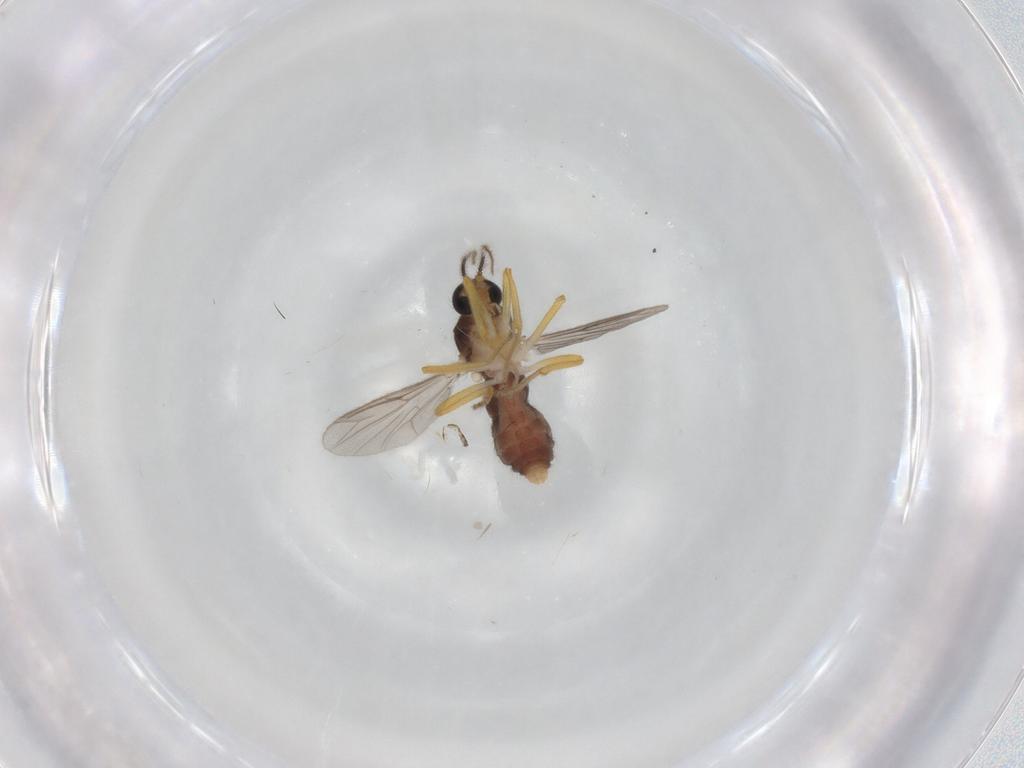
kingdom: Animalia
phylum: Arthropoda
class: Insecta
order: Diptera
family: Ceratopogonidae
